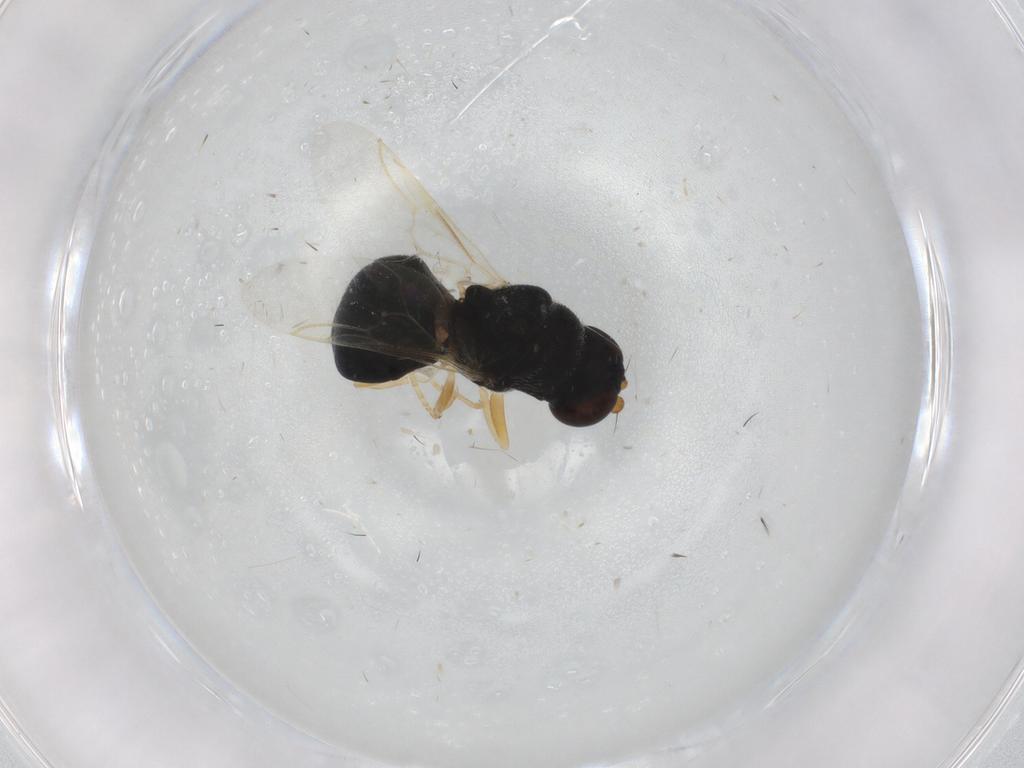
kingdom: Animalia
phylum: Arthropoda
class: Insecta
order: Diptera
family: Stratiomyidae
